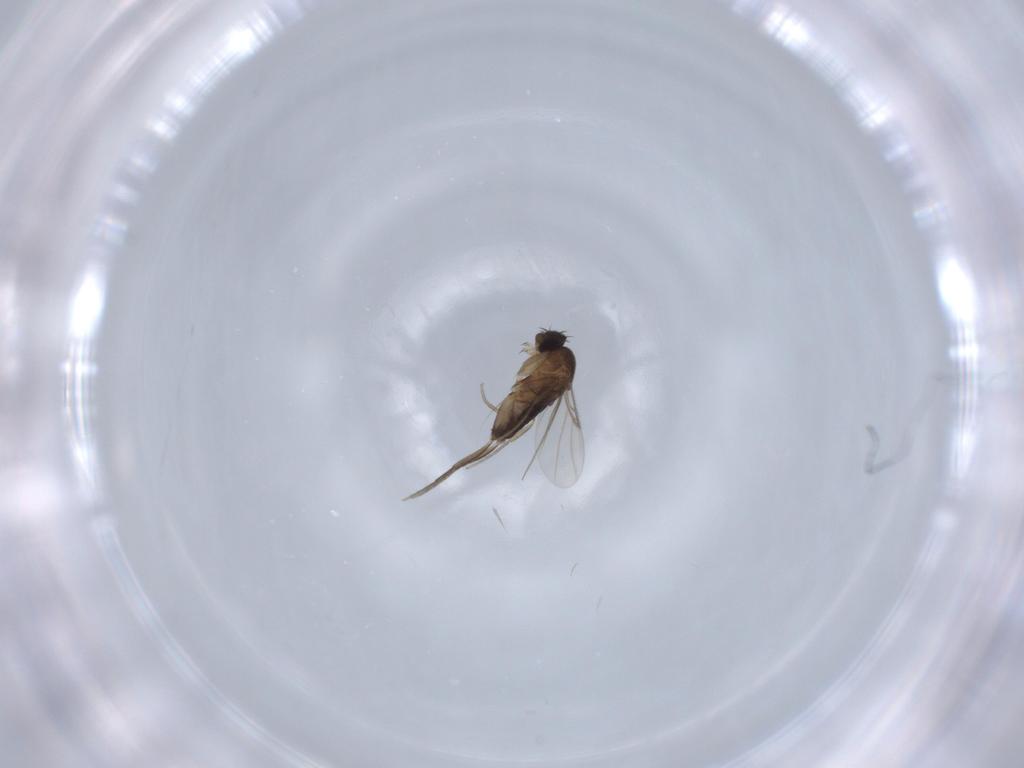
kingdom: Animalia
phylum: Arthropoda
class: Insecta
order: Diptera
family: Phoridae
